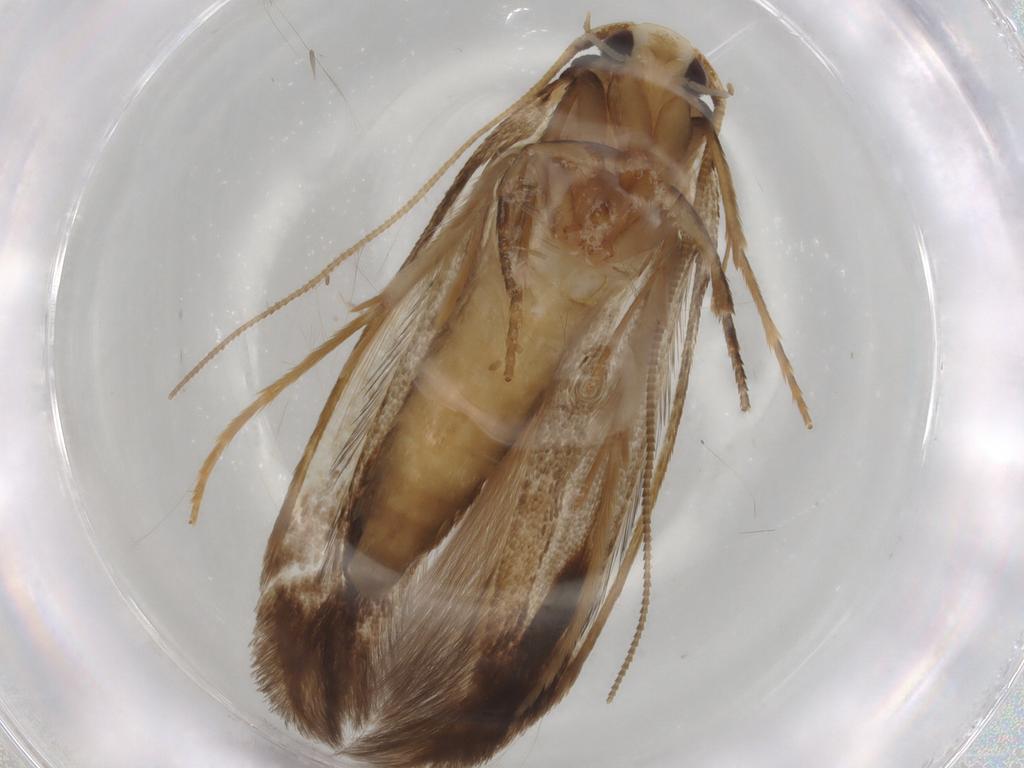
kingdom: Animalia
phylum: Arthropoda
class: Insecta
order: Lepidoptera
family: Tineidae
